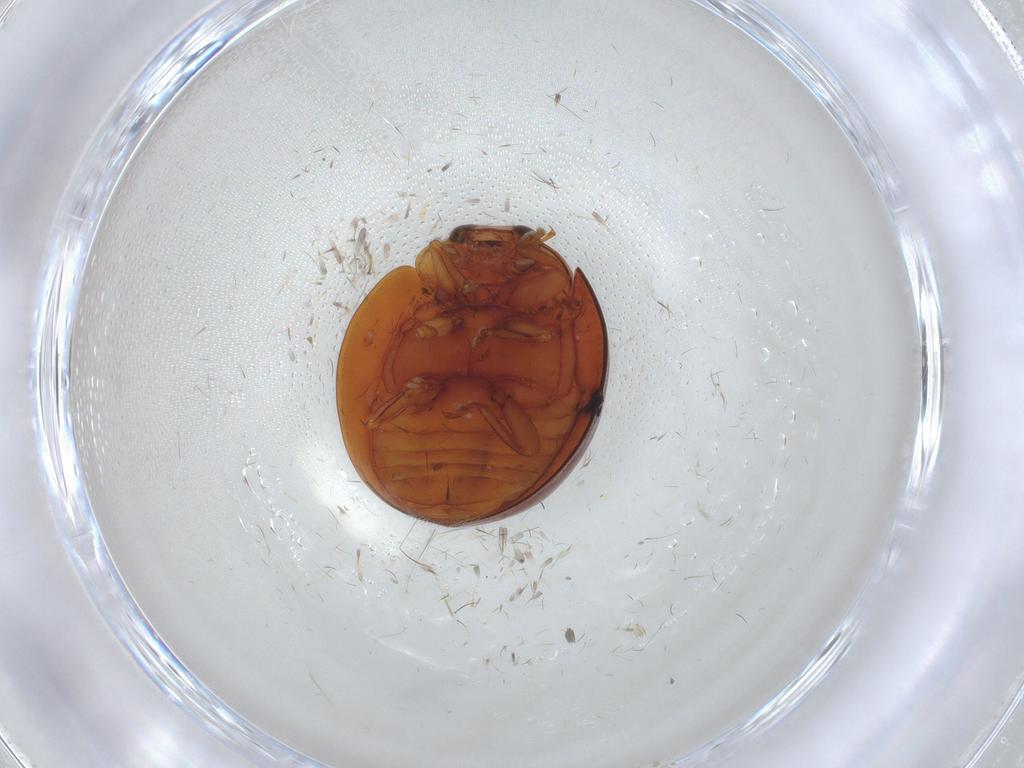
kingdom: Animalia
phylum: Arthropoda
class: Insecta
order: Coleoptera
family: Coccinellidae
